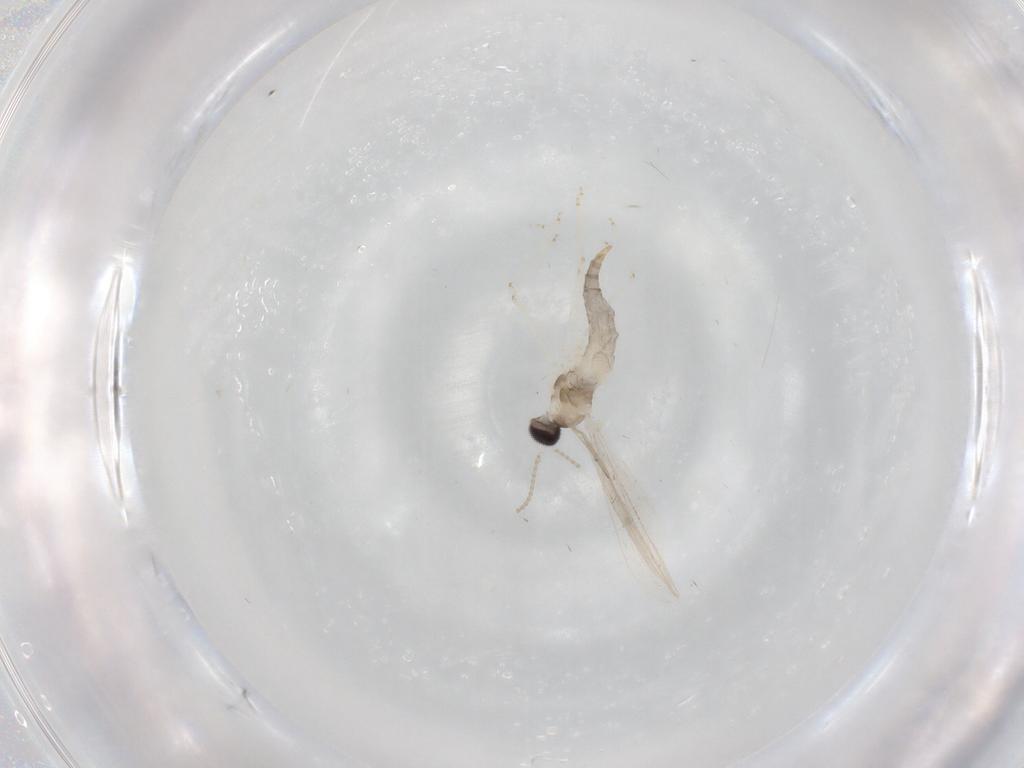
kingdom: Animalia
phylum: Arthropoda
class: Insecta
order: Diptera
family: Cecidomyiidae
